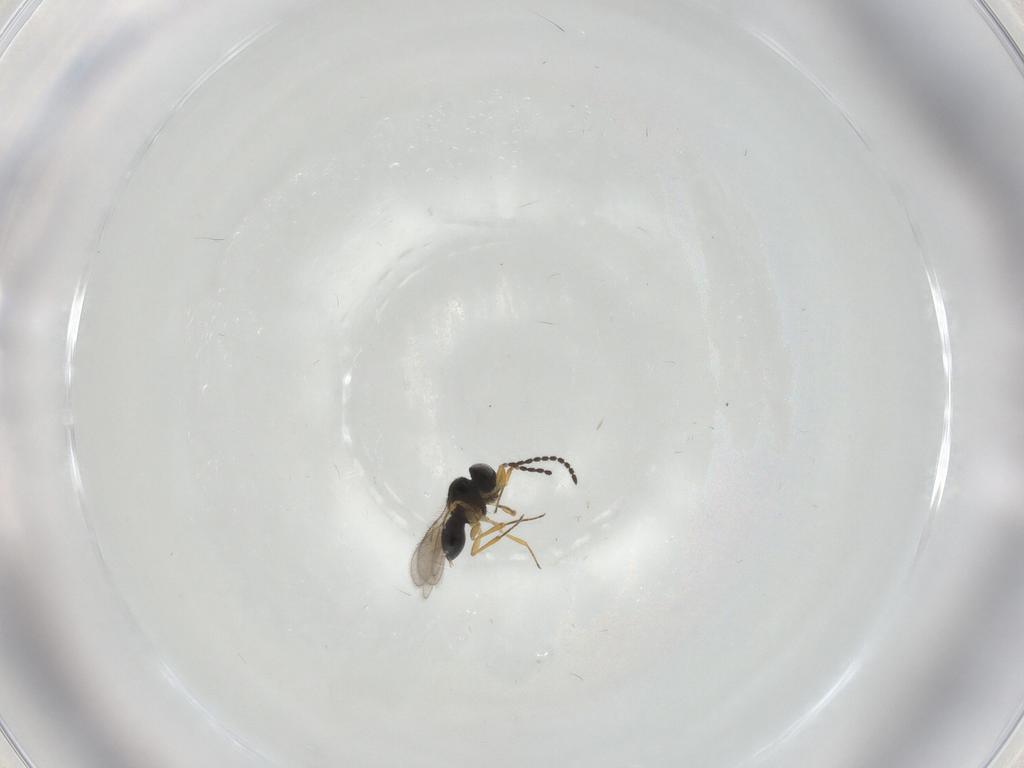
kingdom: Animalia
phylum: Arthropoda
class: Insecta
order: Hymenoptera
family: Scelionidae
